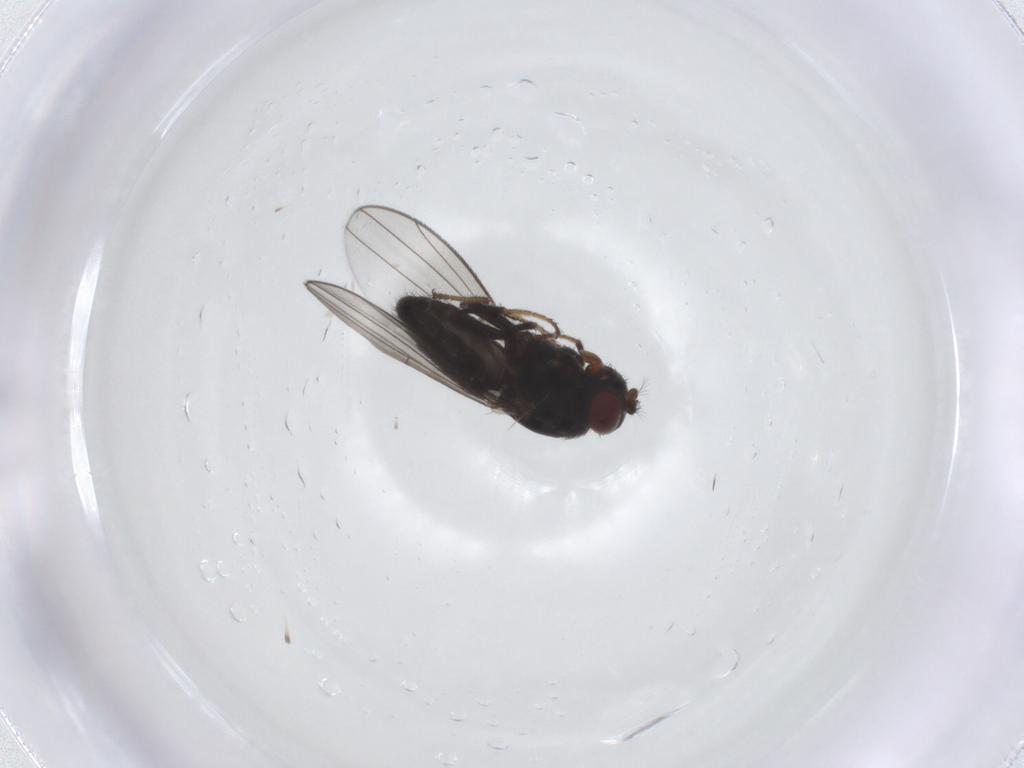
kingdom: Animalia
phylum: Arthropoda
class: Insecta
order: Diptera
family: Ephydridae
